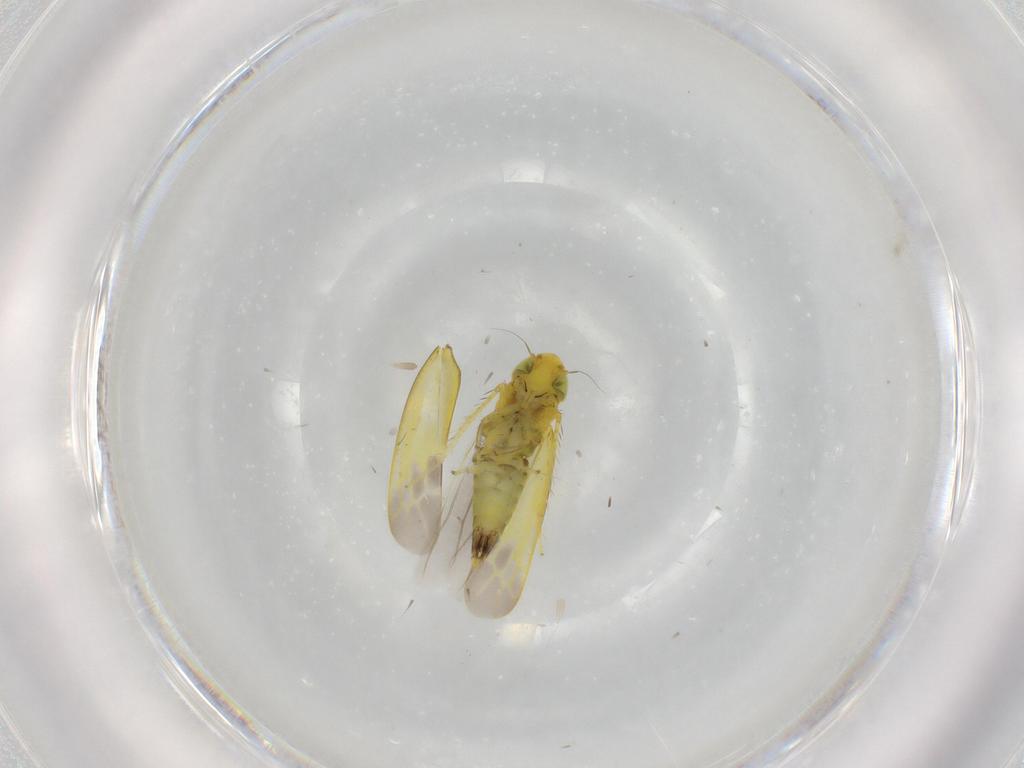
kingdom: Animalia
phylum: Arthropoda
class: Insecta
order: Hemiptera
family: Cicadellidae
